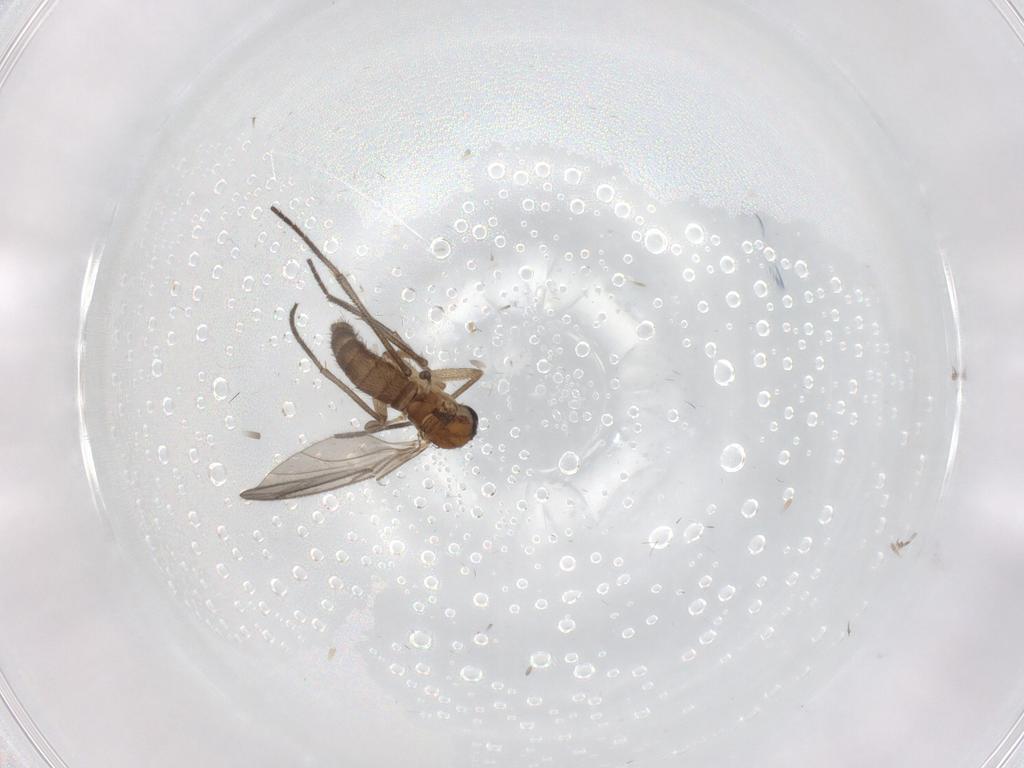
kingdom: Animalia
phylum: Arthropoda
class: Insecta
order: Diptera
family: Sciaridae
